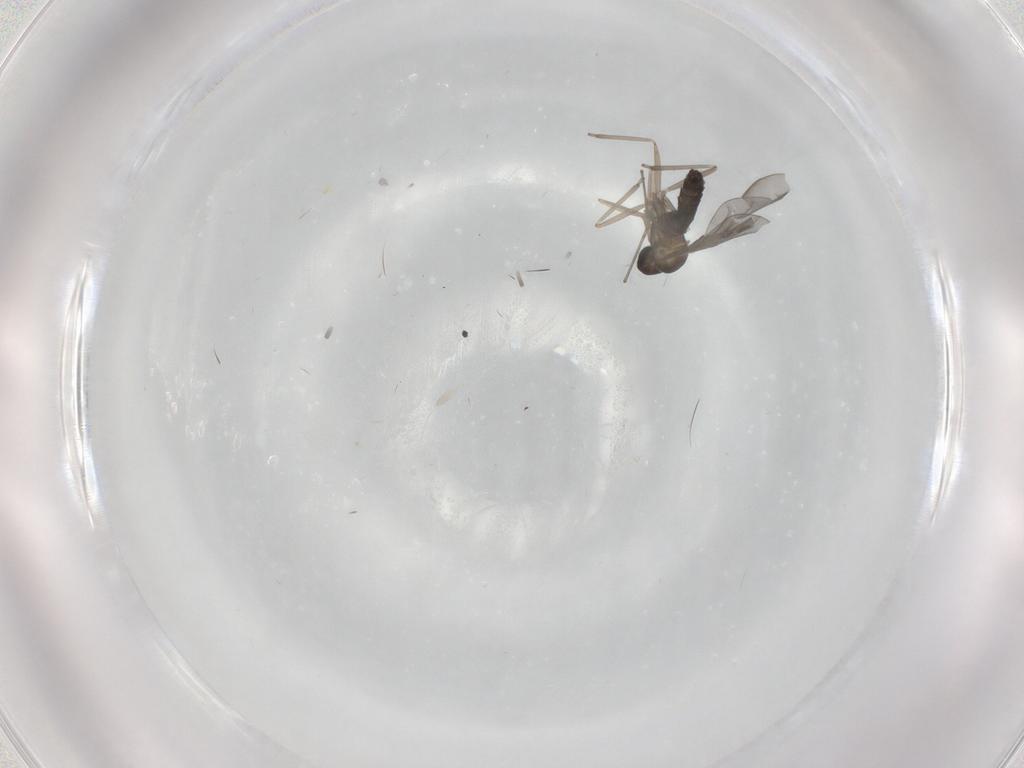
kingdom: Animalia
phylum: Arthropoda
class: Insecta
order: Diptera
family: Cecidomyiidae
